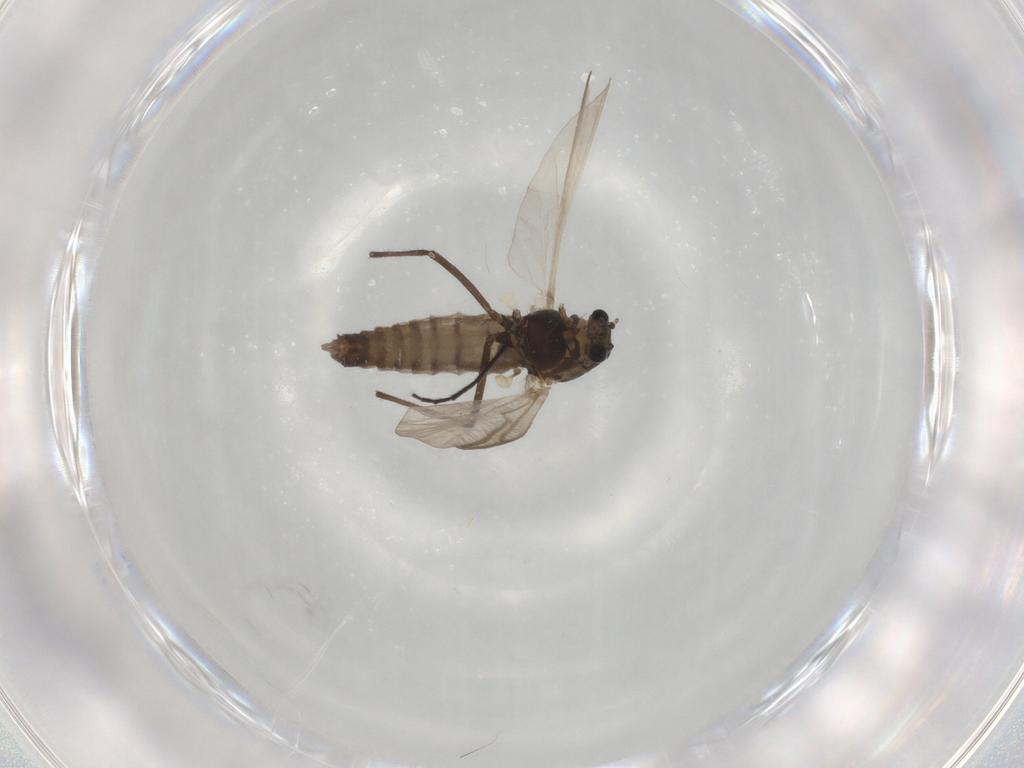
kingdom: Animalia
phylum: Arthropoda
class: Insecta
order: Diptera
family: Chironomidae
